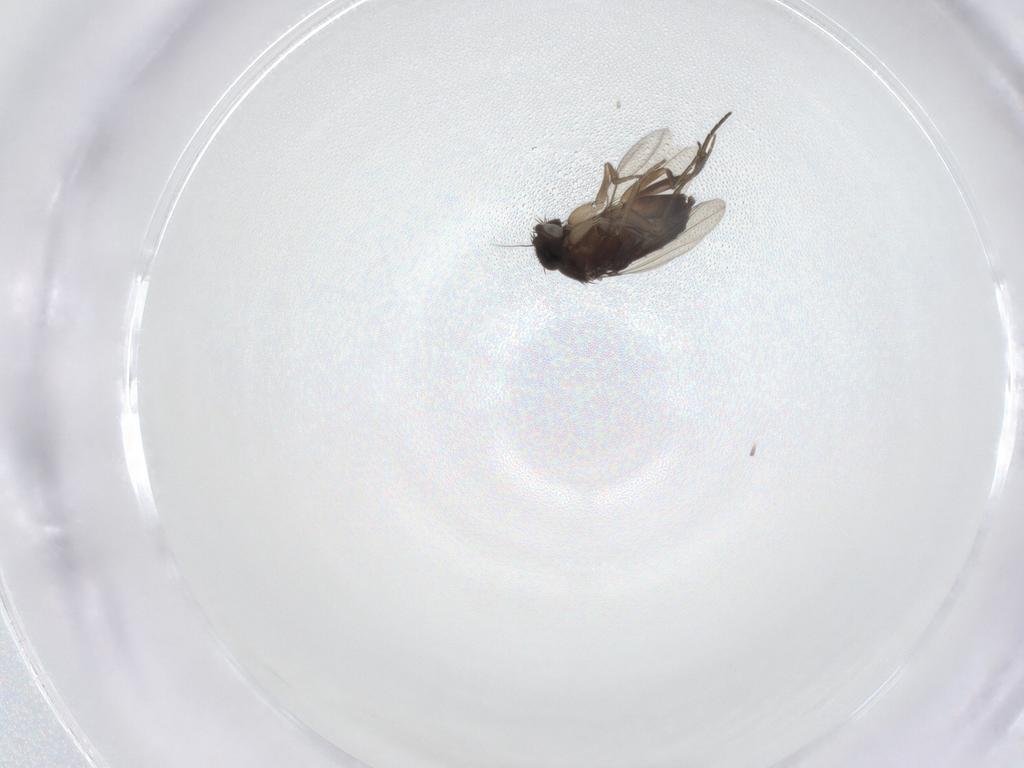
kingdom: Animalia
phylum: Arthropoda
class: Insecta
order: Diptera
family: Phoridae
